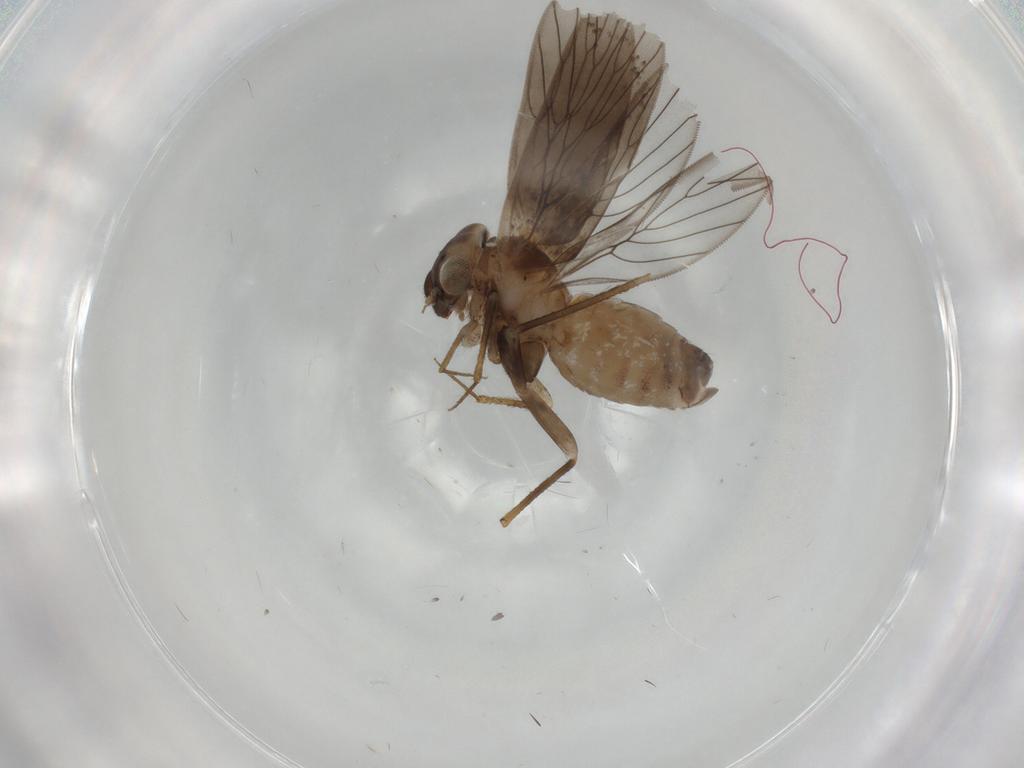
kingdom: Animalia
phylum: Arthropoda
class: Insecta
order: Psocodea
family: Lepidopsocidae
